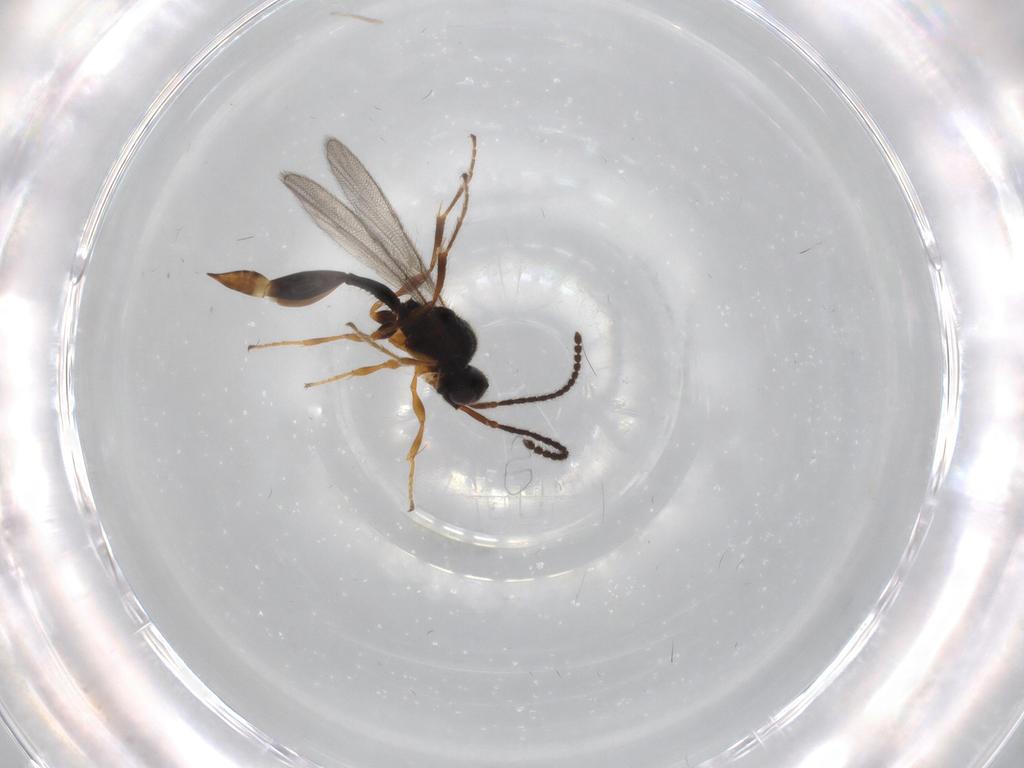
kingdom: Animalia
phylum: Arthropoda
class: Insecta
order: Hymenoptera
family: Diapriidae
